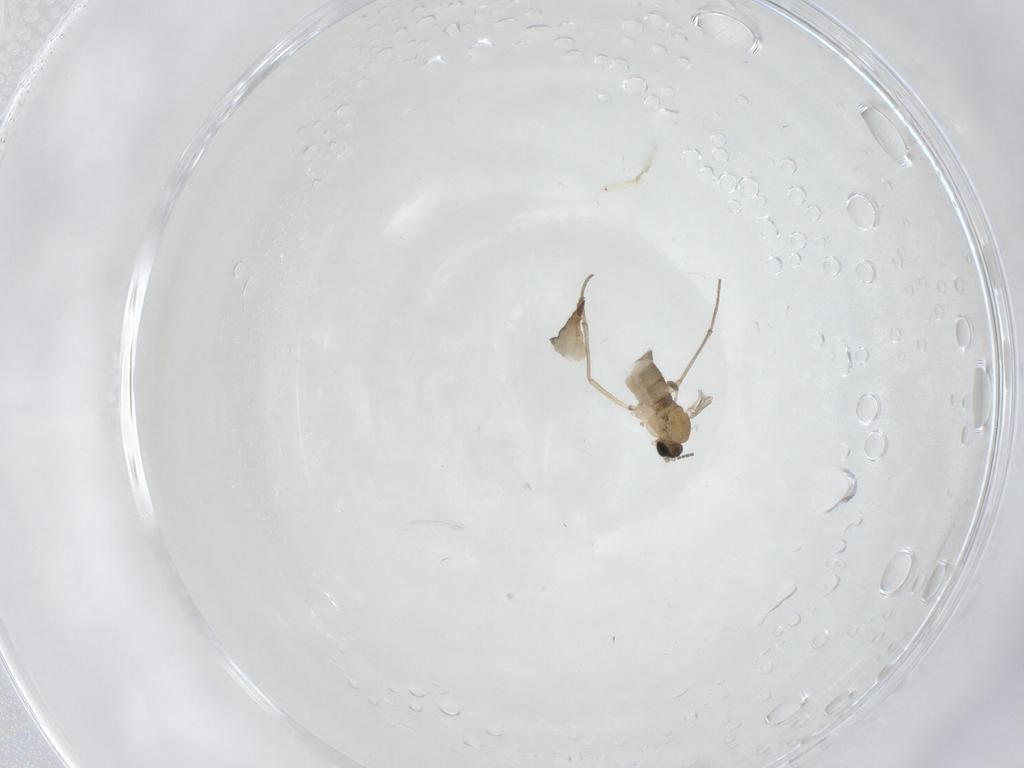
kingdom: Animalia
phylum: Arthropoda
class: Insecta
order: Diptera
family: Sciaridae
